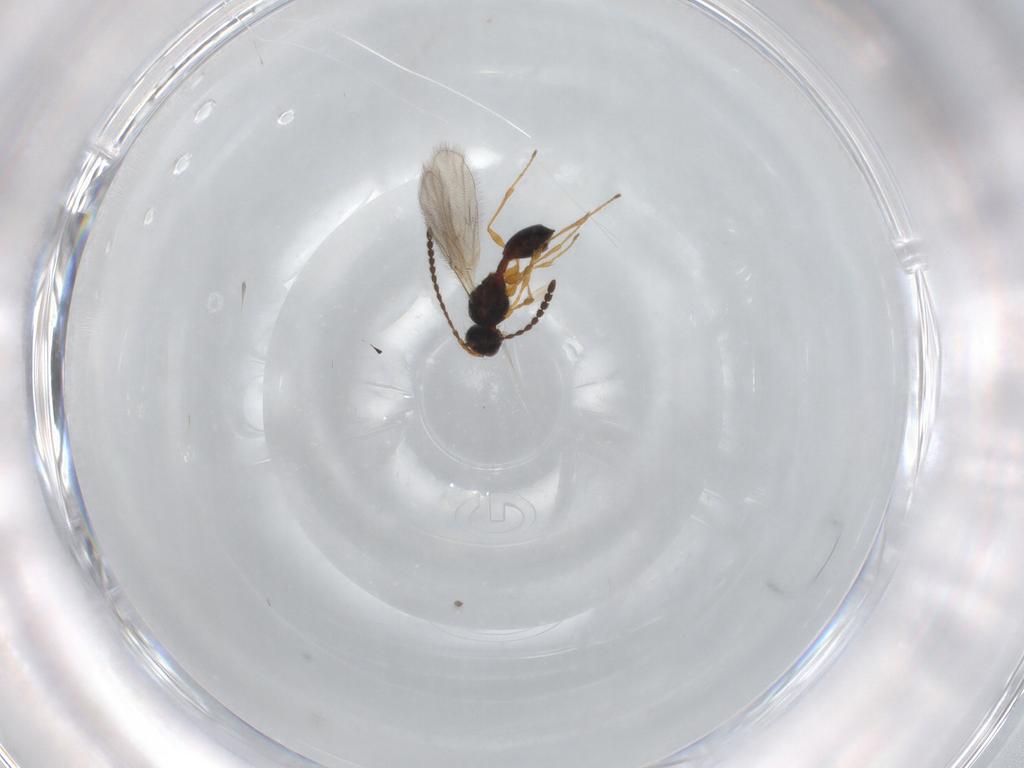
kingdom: Animalia
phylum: Arthropoda
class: Insecta
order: Hymenoptera
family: Diapriidae
